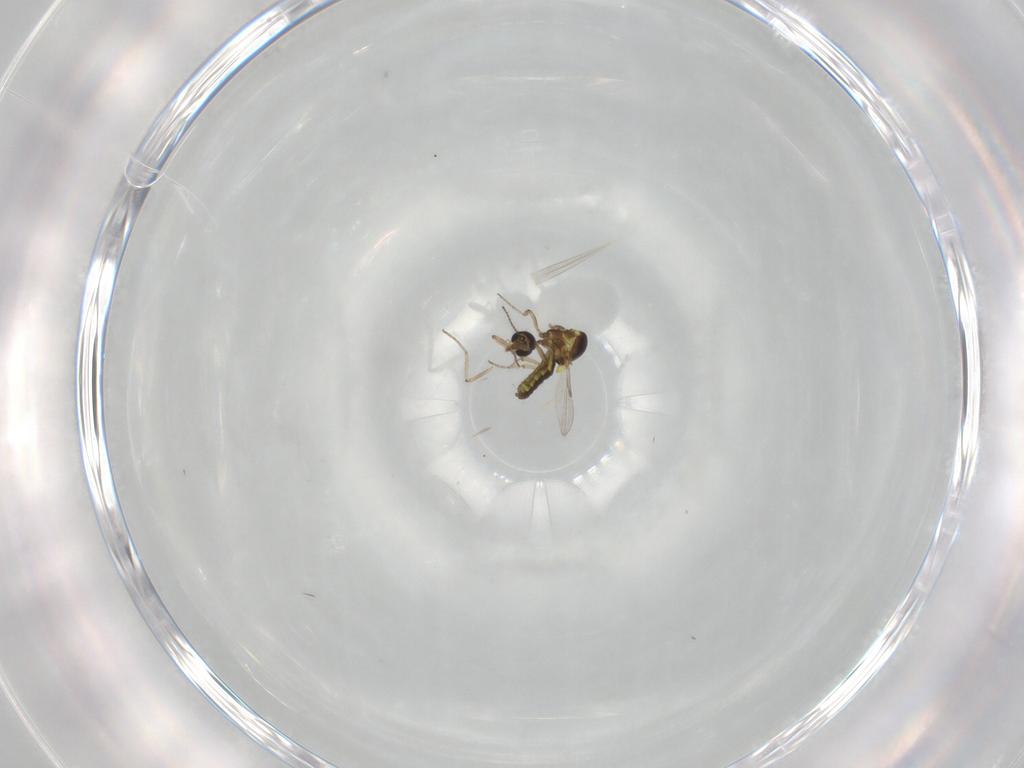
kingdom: Animalia
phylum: Arthropoda
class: Insecta
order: Diptera
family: Ceratopogonidae
